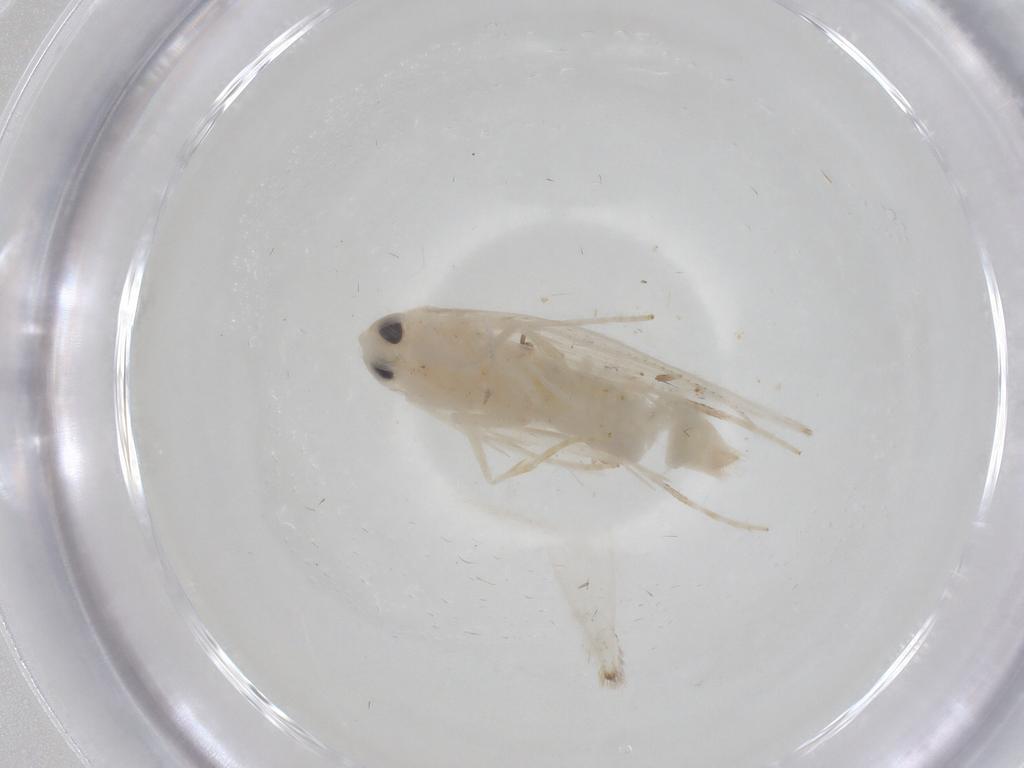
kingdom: Animalia
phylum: Arthropoda
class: Insecta
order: Lepidoptera
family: Stathmopodidae
